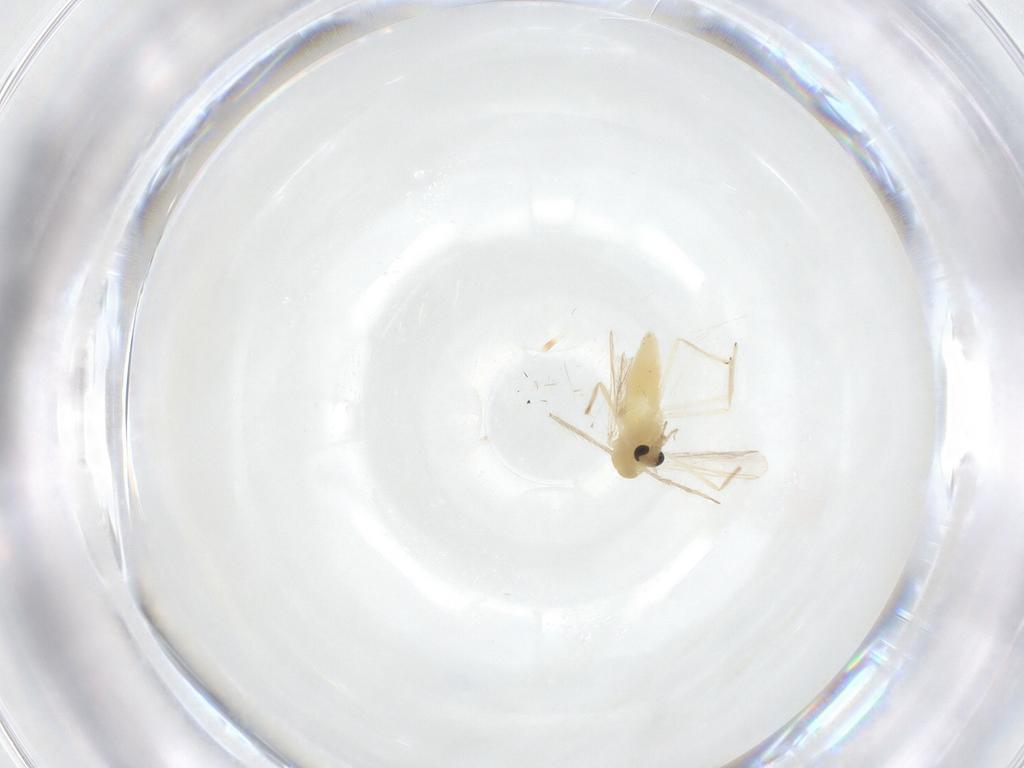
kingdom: Animalia
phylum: Arthropoda
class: Insecta
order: Diptera
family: Chironomidae
